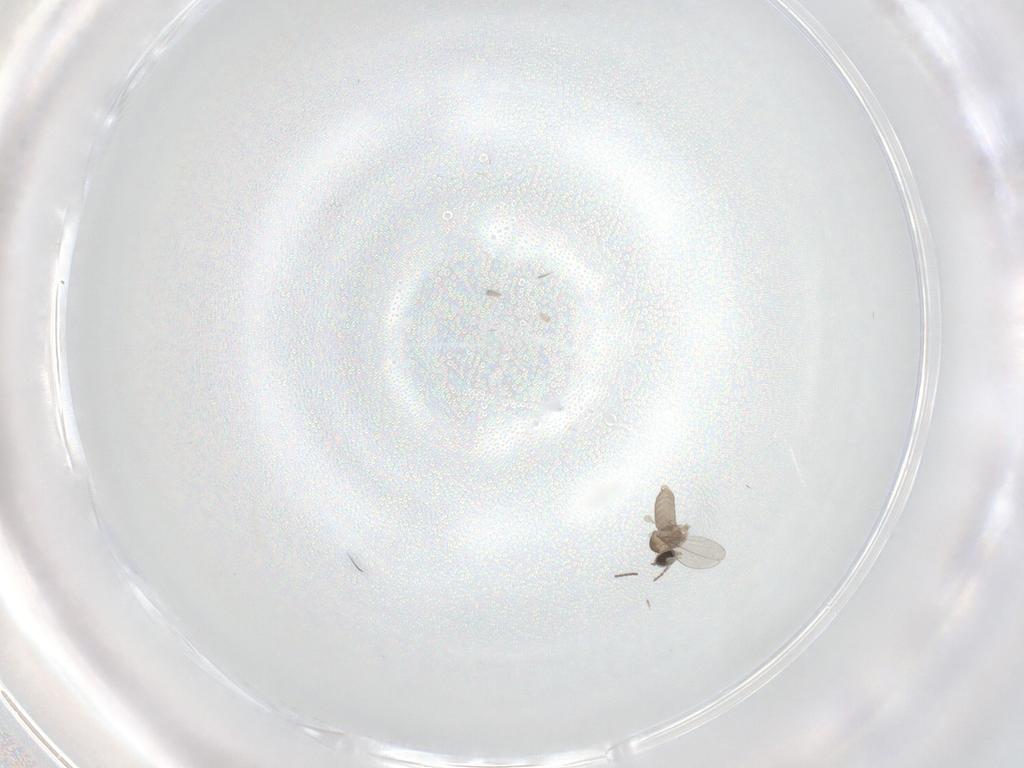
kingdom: Animalia
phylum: Arthropoda
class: Insecta
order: Diptera
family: Cecidomyiidae
